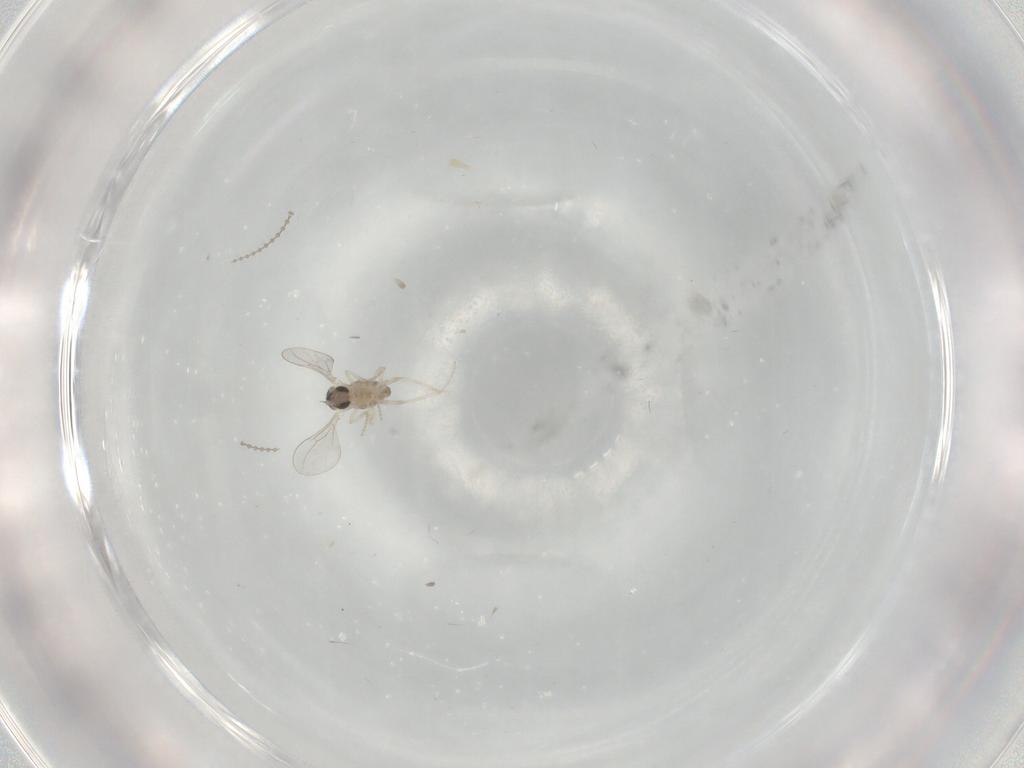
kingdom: Animalia
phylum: Arthropoda
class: Insecta
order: Diptera
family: Cecidomyiidae
